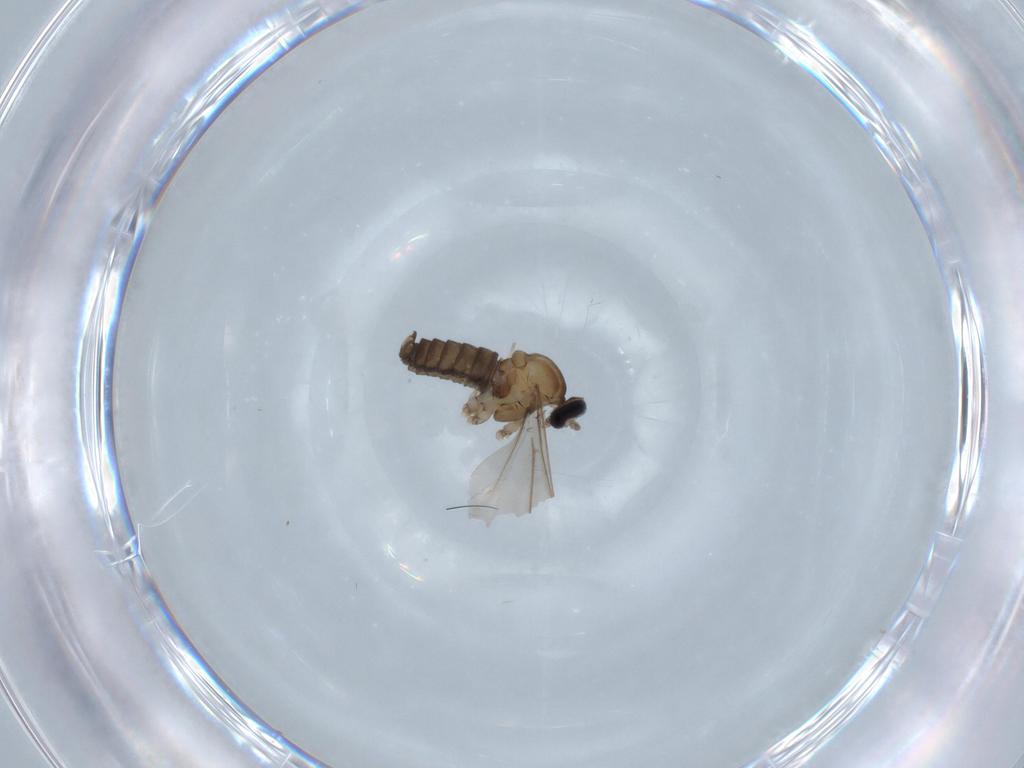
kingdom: Animalia
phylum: Arthropoda
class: Insecta
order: Diptera
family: Cecidomyiidae
